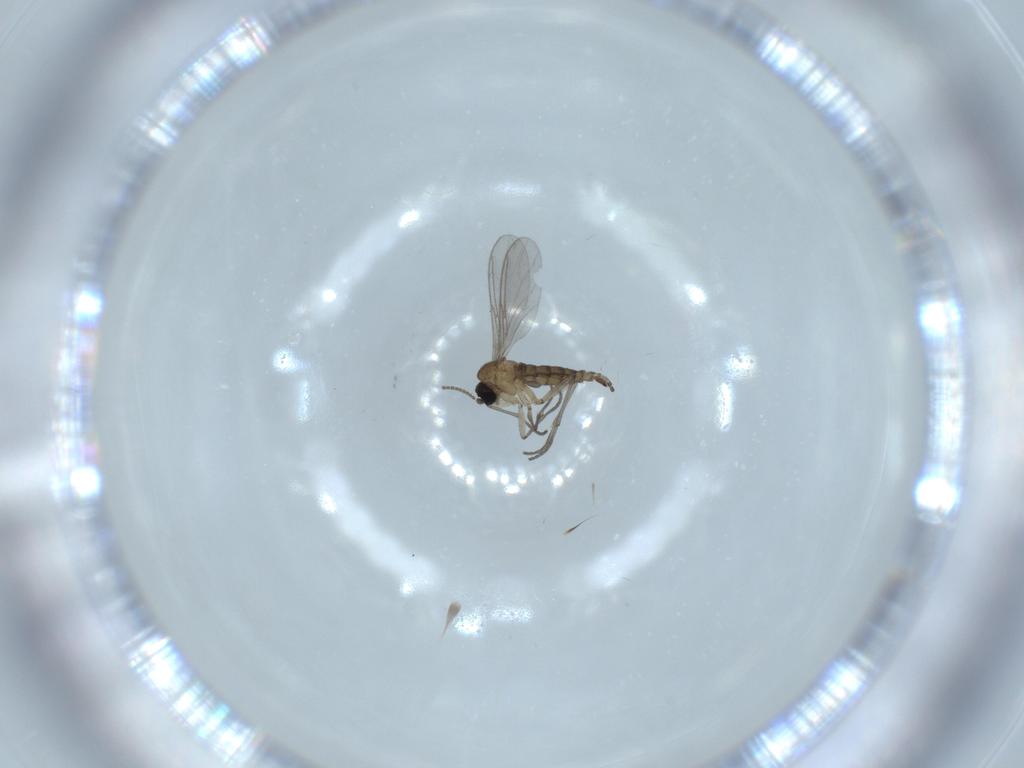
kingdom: Animalia
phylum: Arthropoda
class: Insecta
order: Diptera
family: Sciaridae
